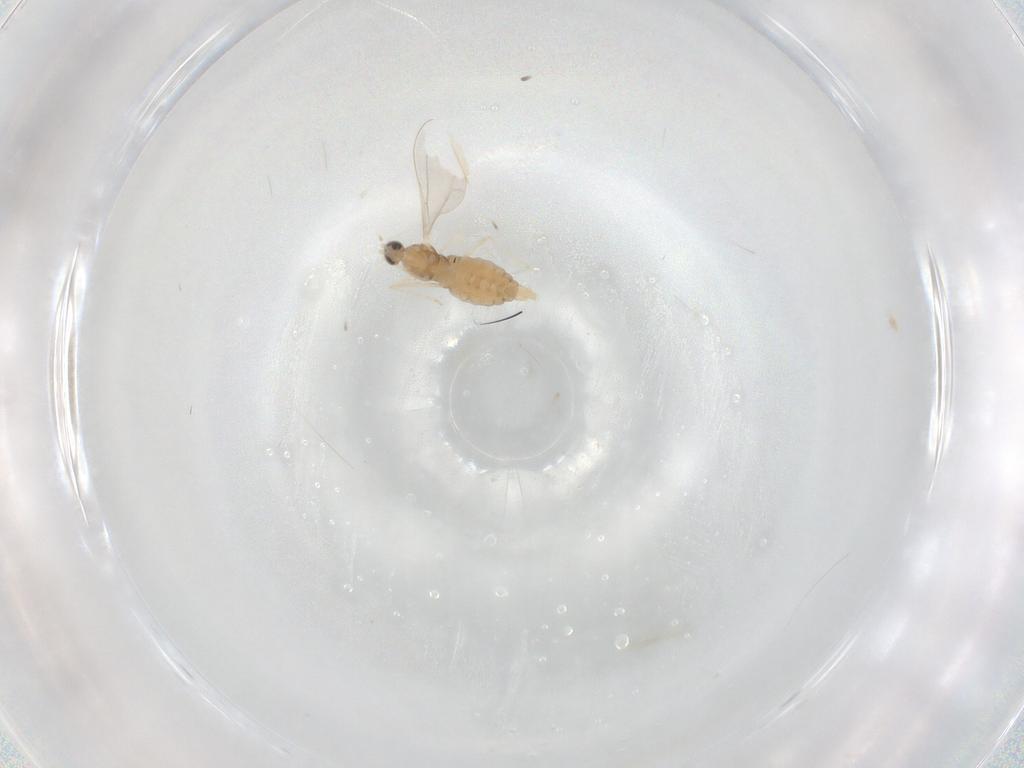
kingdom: Animalia
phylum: Arthropoda
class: Insecta
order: Diptera
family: Cecidomyiidae
